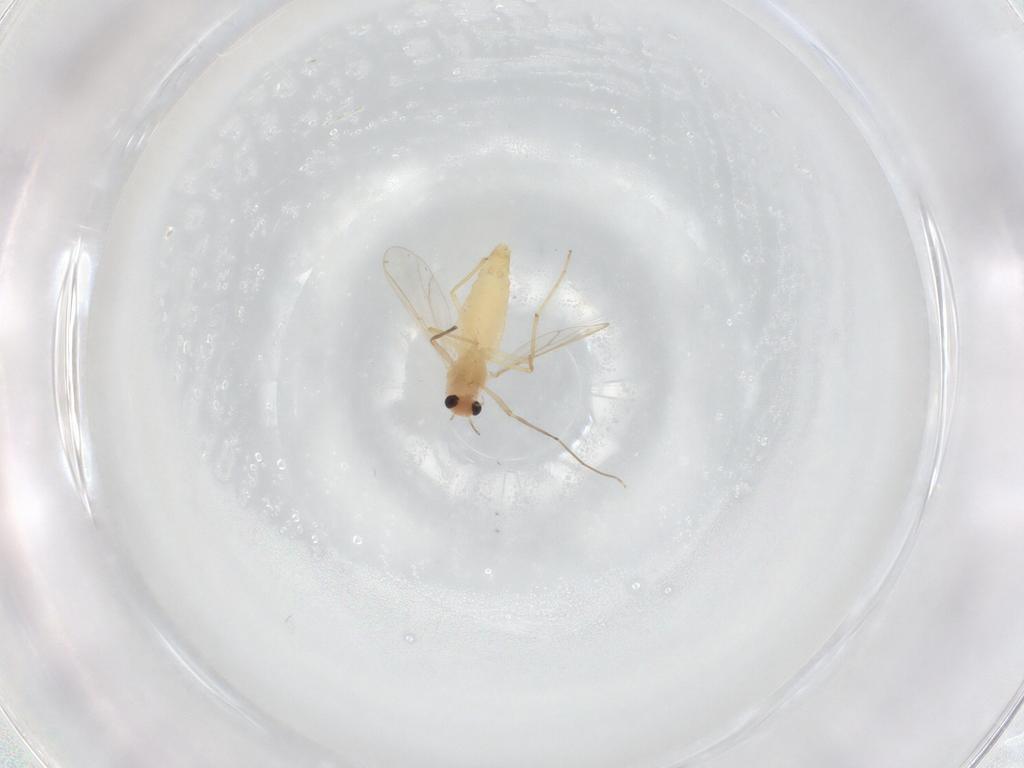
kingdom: Animalia
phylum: Arthropoda
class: Insecta
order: Diptera
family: Chironomidae
